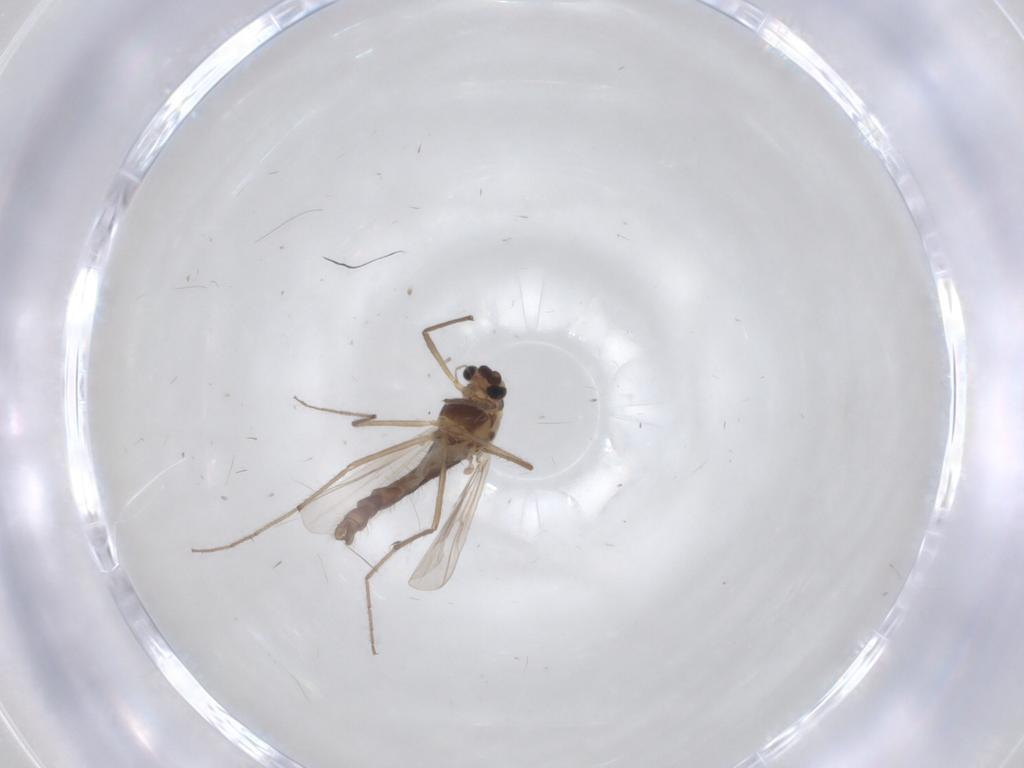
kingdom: Animalia
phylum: Arthropoda
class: Insecta
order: Diptera
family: Chironomidae
